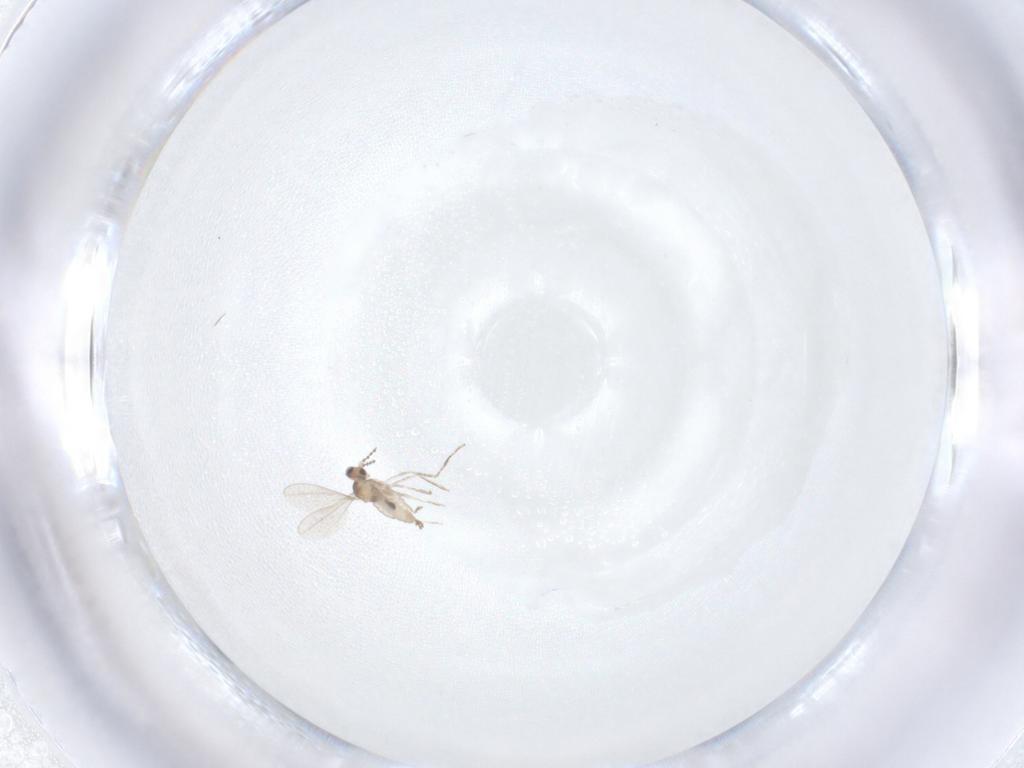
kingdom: Animalia
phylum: Arthropoda
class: Insecta
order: Diptera
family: Cecidomyiidae
